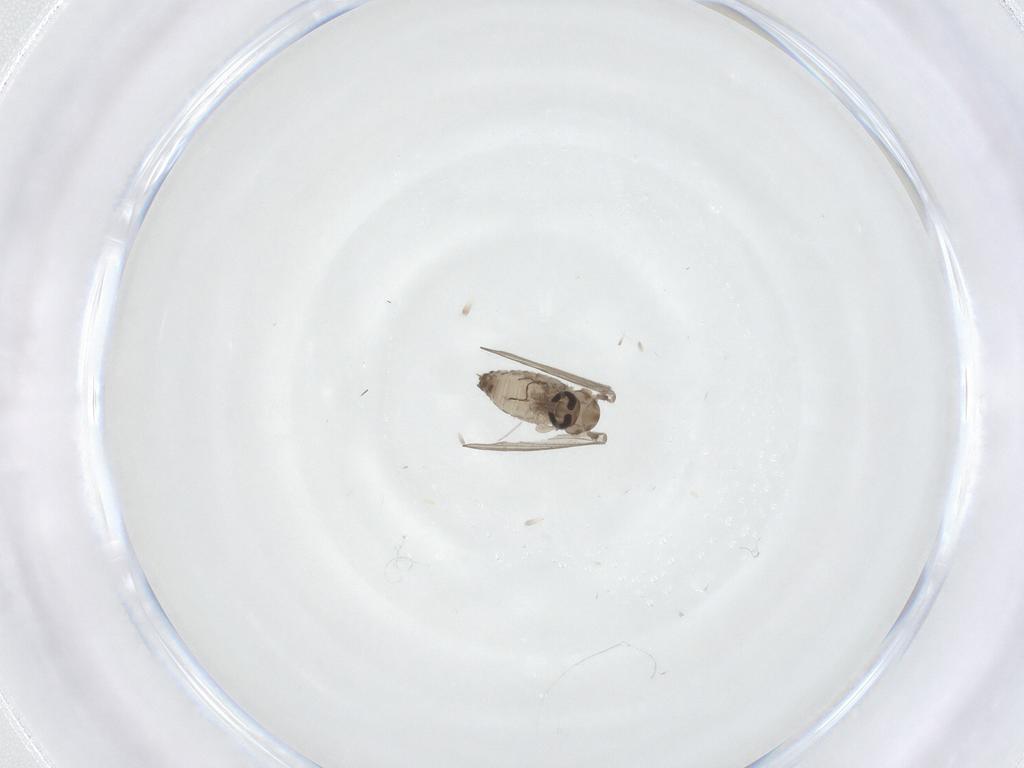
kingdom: Animalia
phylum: Arthropoda
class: Insecta
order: Diptera
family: Psychodidae
